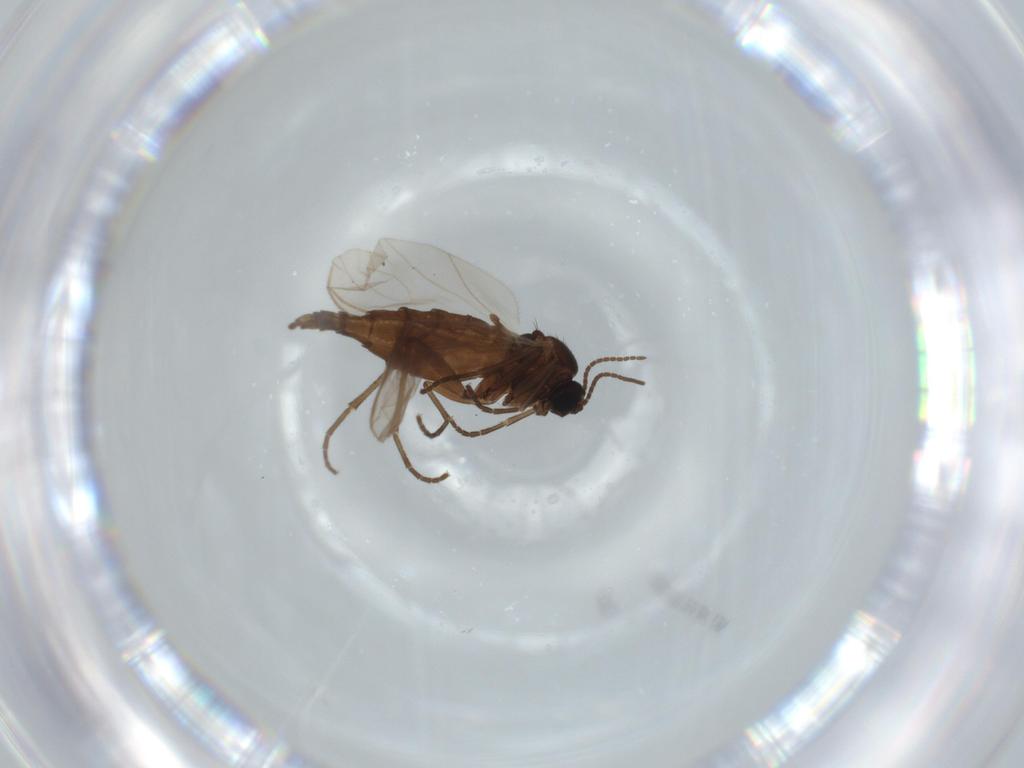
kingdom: Animalia
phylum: Arthropoda
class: Insecta
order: Diptera
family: Sciaridae
